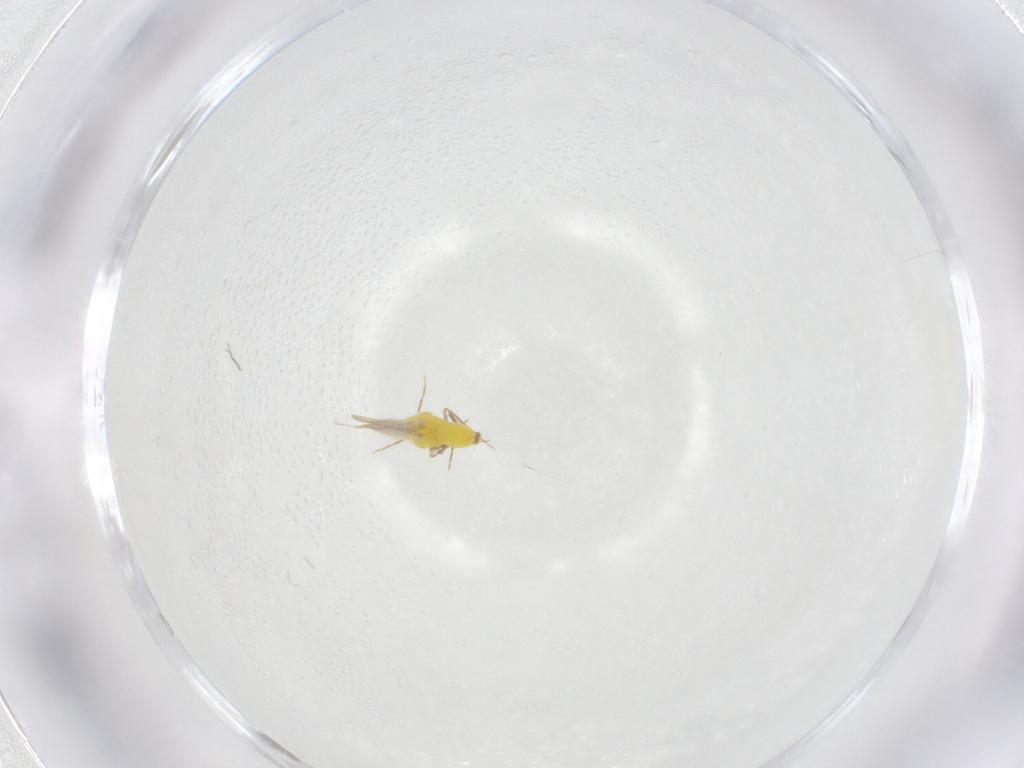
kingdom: Animalia
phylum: Arthropoda
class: Insecta
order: Hemiptera
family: Aleyrodidae
